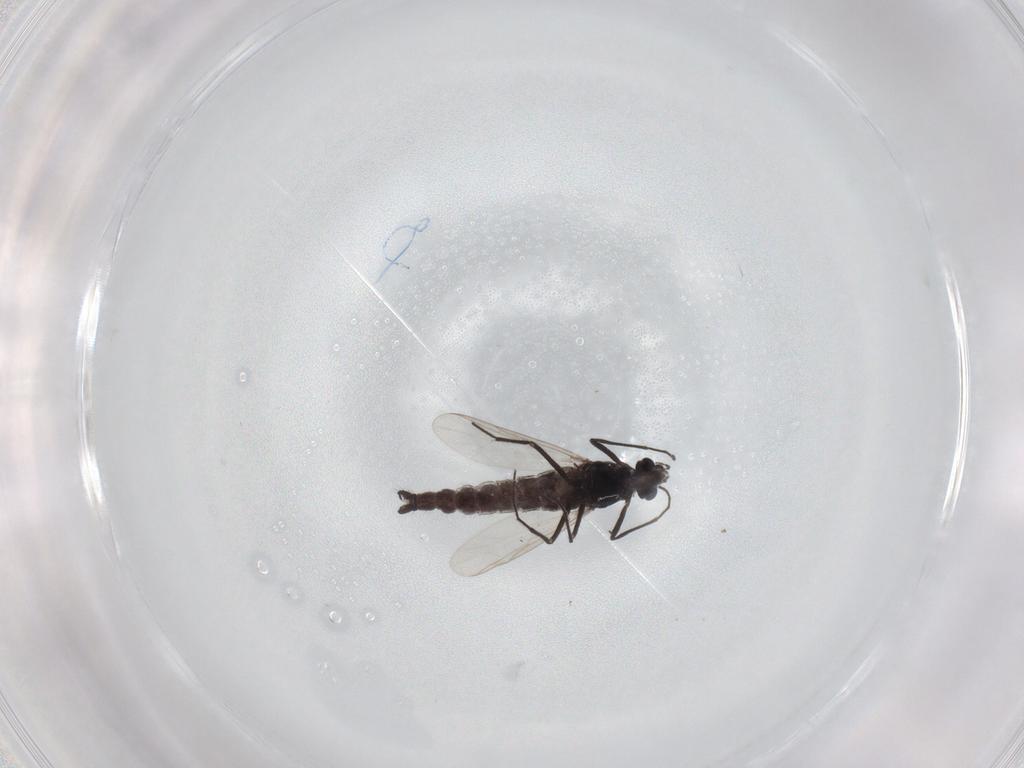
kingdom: Animalia
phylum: Arthropoda
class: Insecta
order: Diptera
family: Chironomidae
